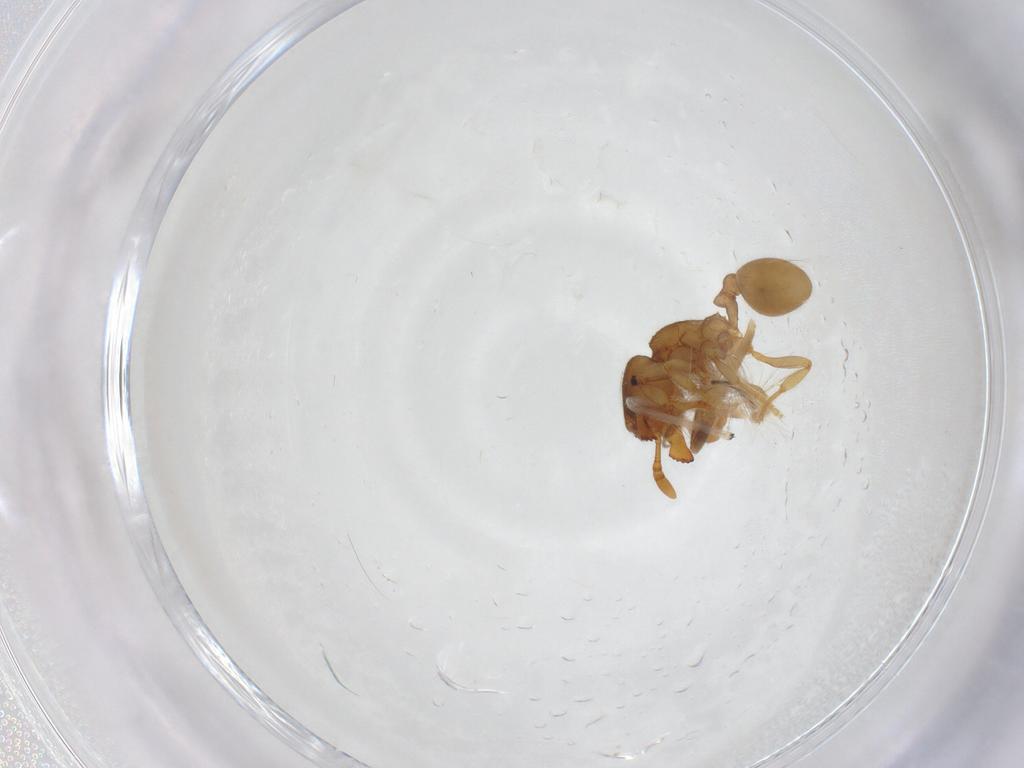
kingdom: Animalia
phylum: Arthropoda
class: Insecta
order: Hymenoptera
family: Formicidae
